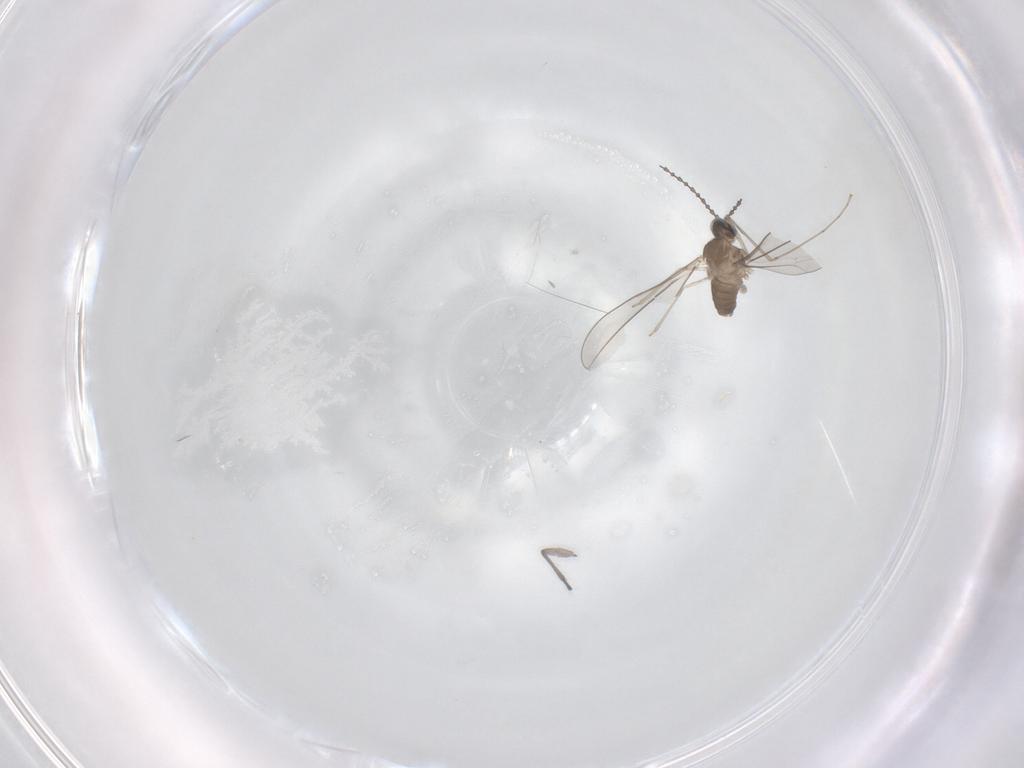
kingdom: Animalia
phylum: Arthropoda
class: Insecta
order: Diptera
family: Cecidomyiidae
